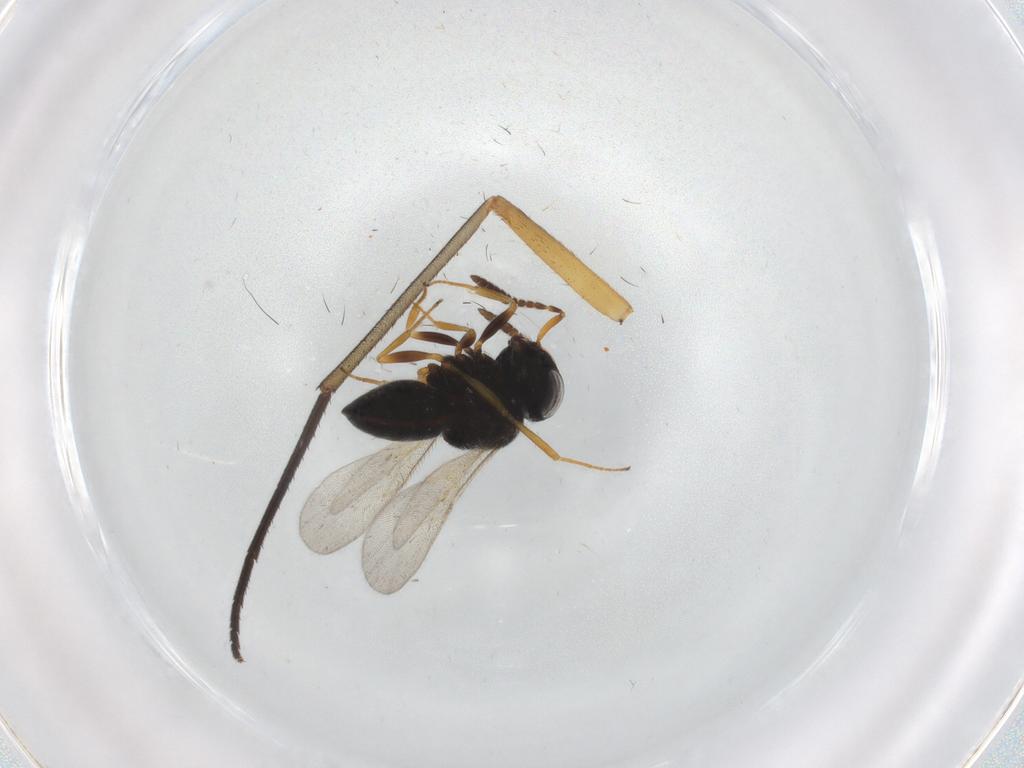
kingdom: Animalia
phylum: Arthropoda
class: Insecta
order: Hymenoptera
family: Scelionidae
